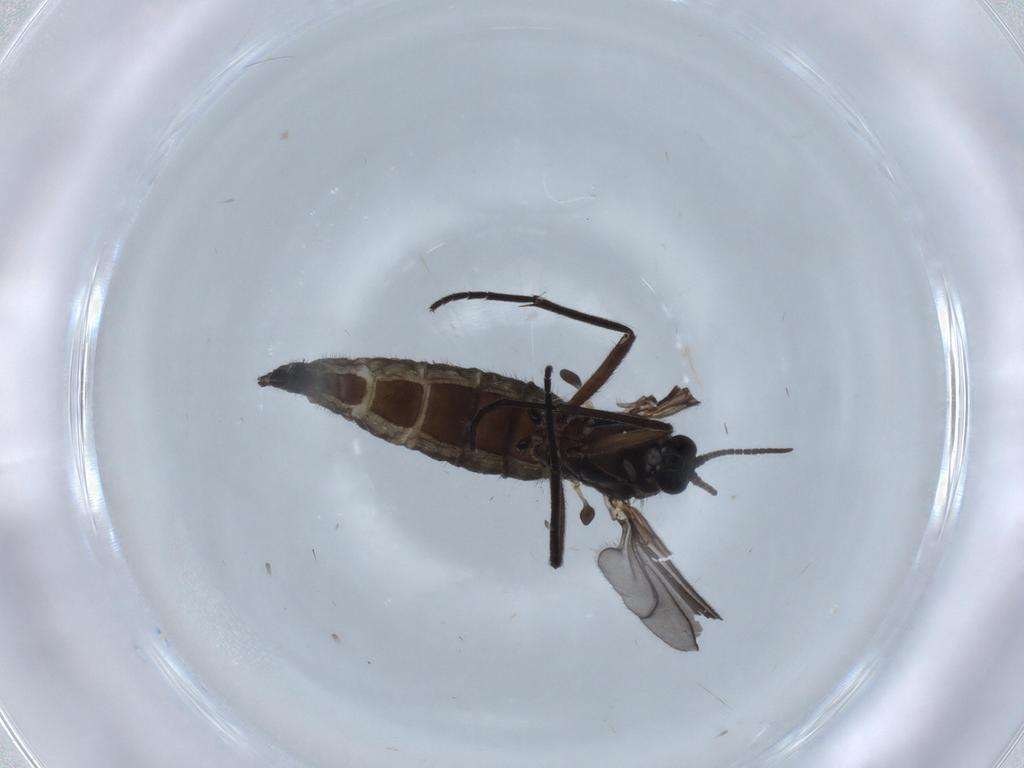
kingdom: Animalia
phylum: Arthropoda
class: Insecta
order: Diptera
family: Sciaridae
